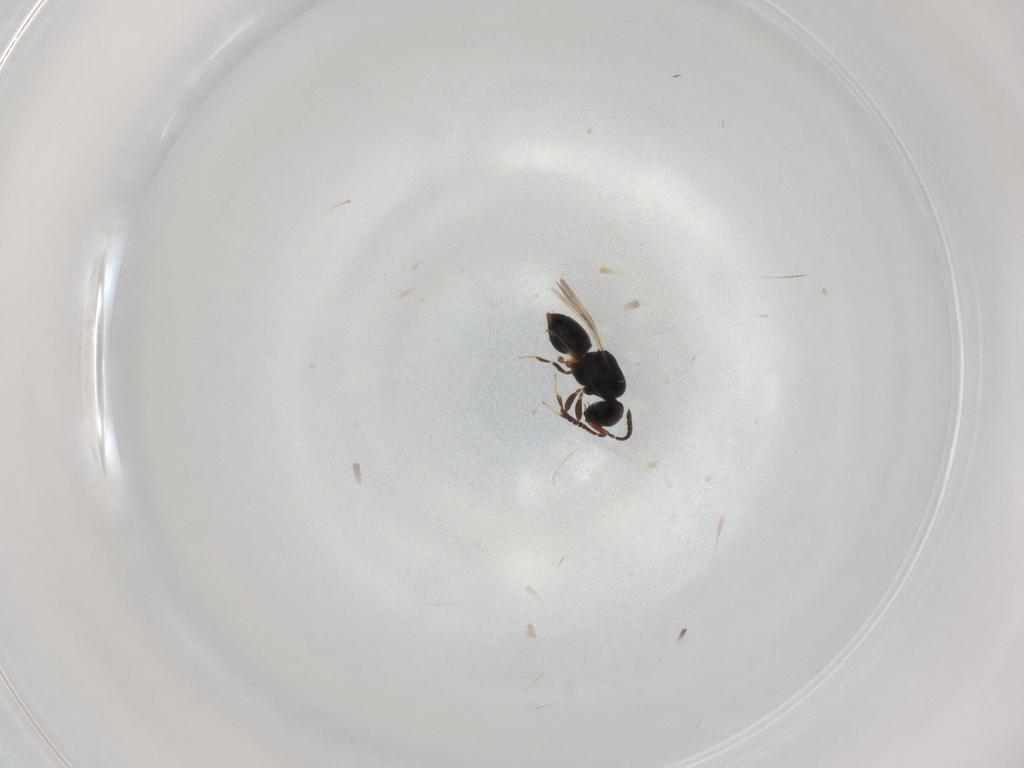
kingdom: Animalia
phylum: Arthropoda
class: Insecta
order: Hymenoptera
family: Ceraphronidae
